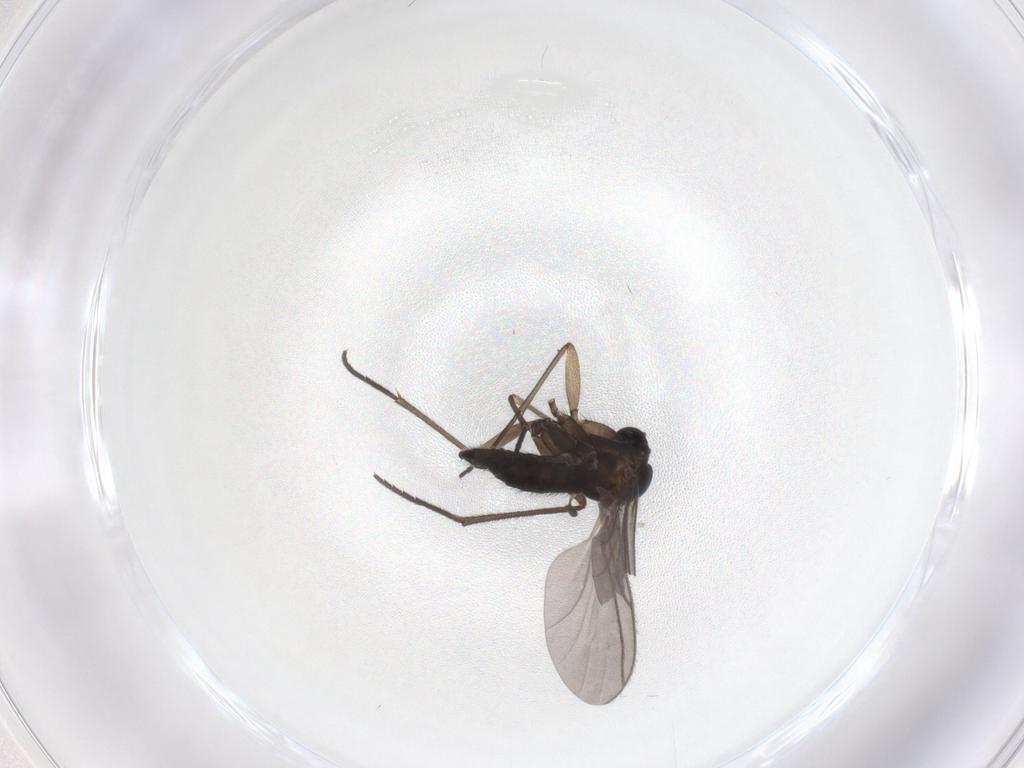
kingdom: Animalia
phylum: Arthropoda
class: Insecta
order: Diptera
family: Sciaridae
